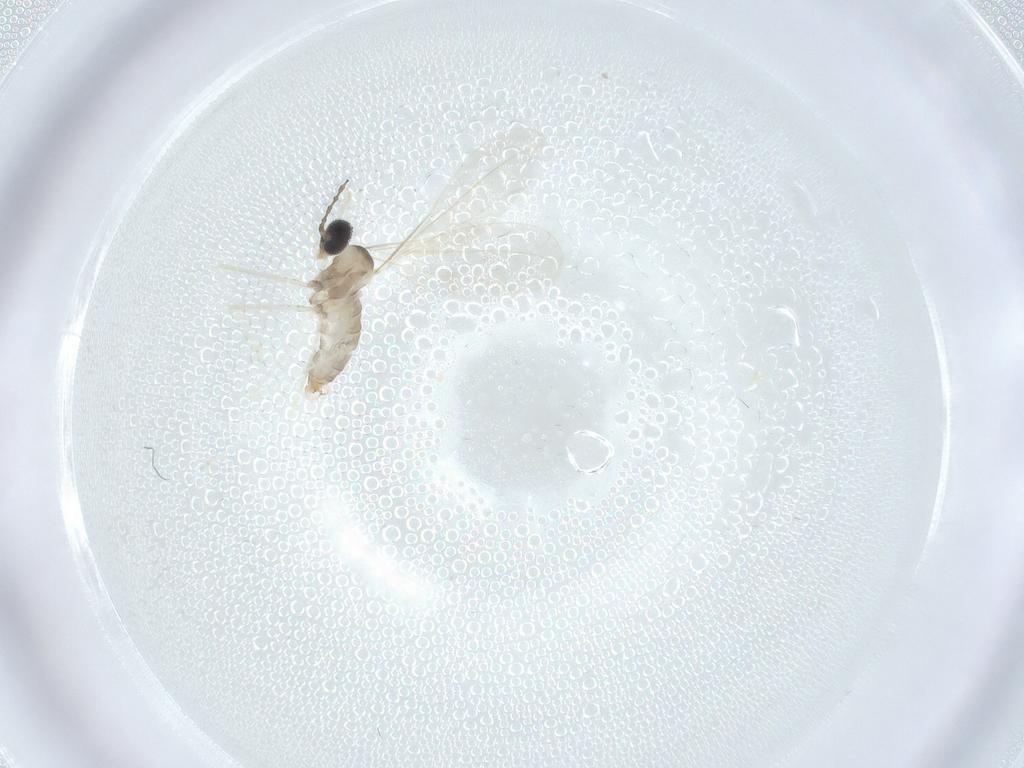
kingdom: Animalia
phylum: Arthropoda
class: Insecta
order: Diptera
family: Cecidomyiidae
